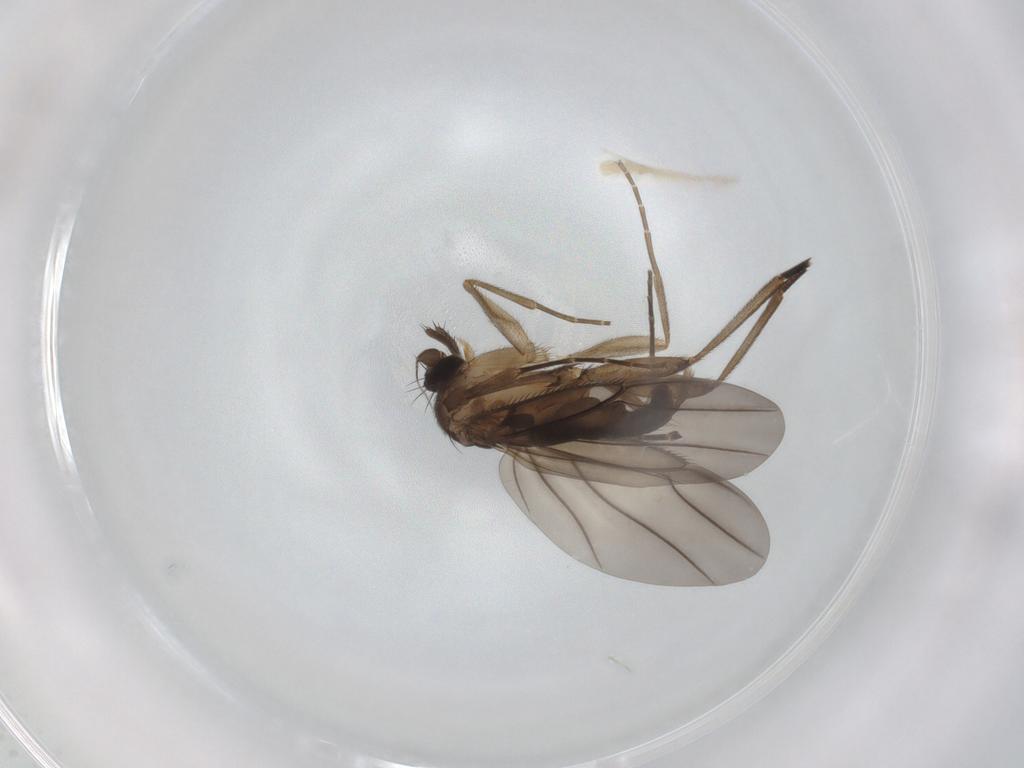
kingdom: Animalia
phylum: Arthropoda
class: Insecta
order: Diptera
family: Phoridae
